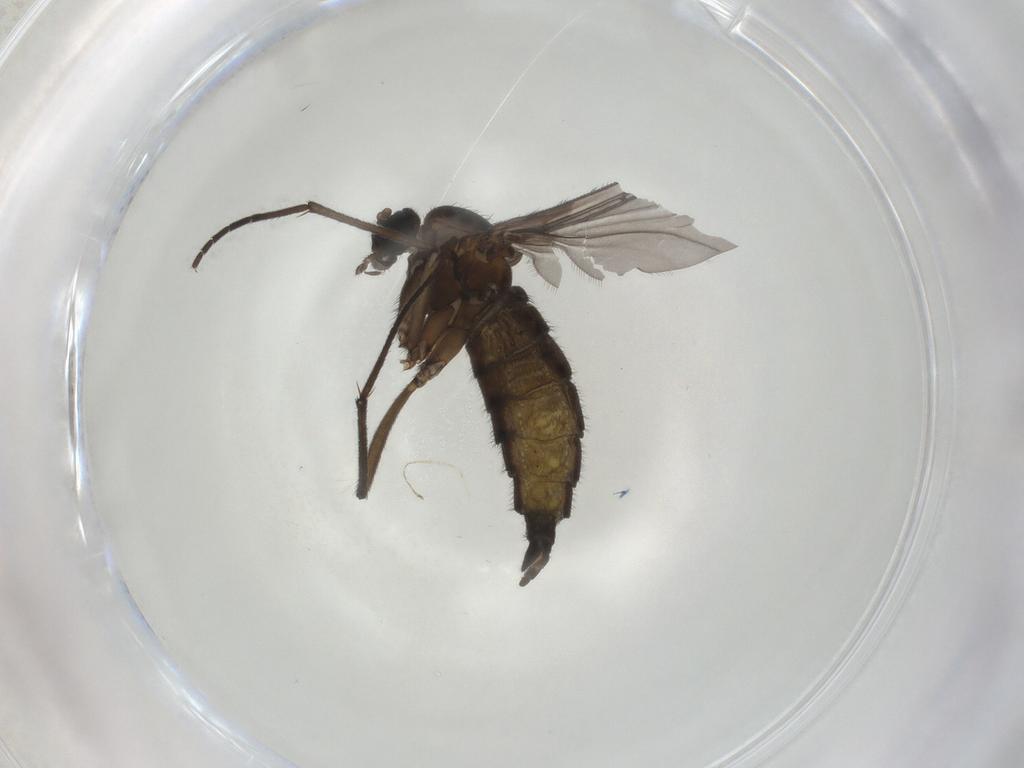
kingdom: Animalia
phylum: Arthropoda
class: Insecta
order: Diptera
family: Sciaridae
